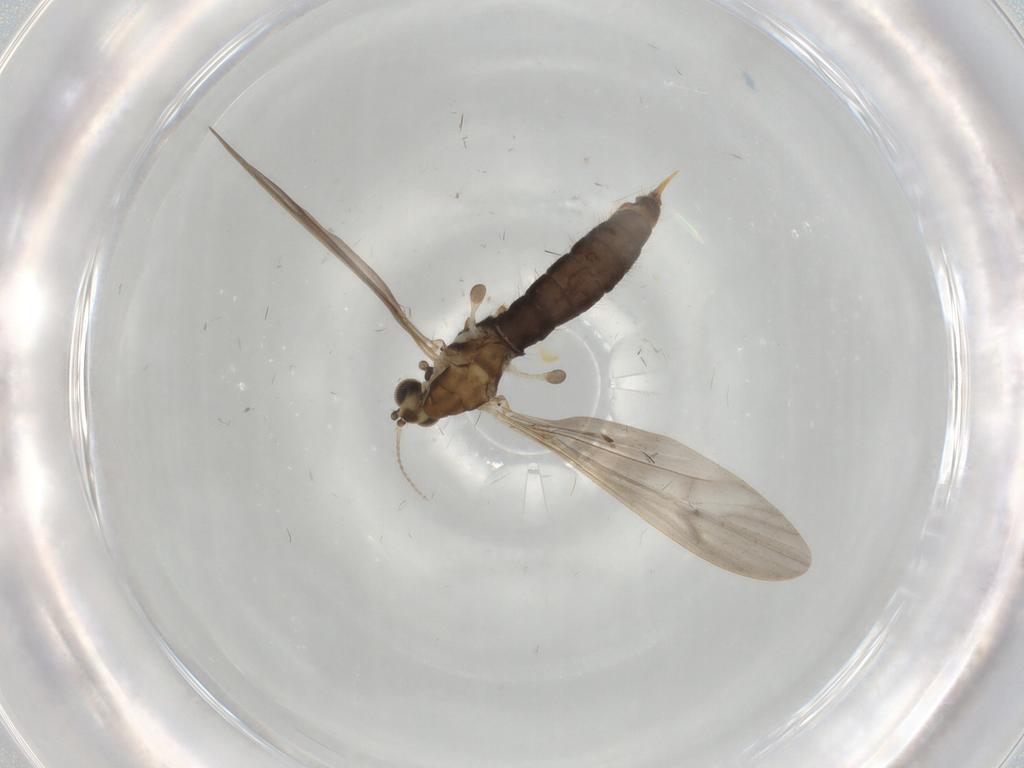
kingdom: Animalia
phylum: Arthropoda
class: Insecta
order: Diptera
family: Limoniidae
